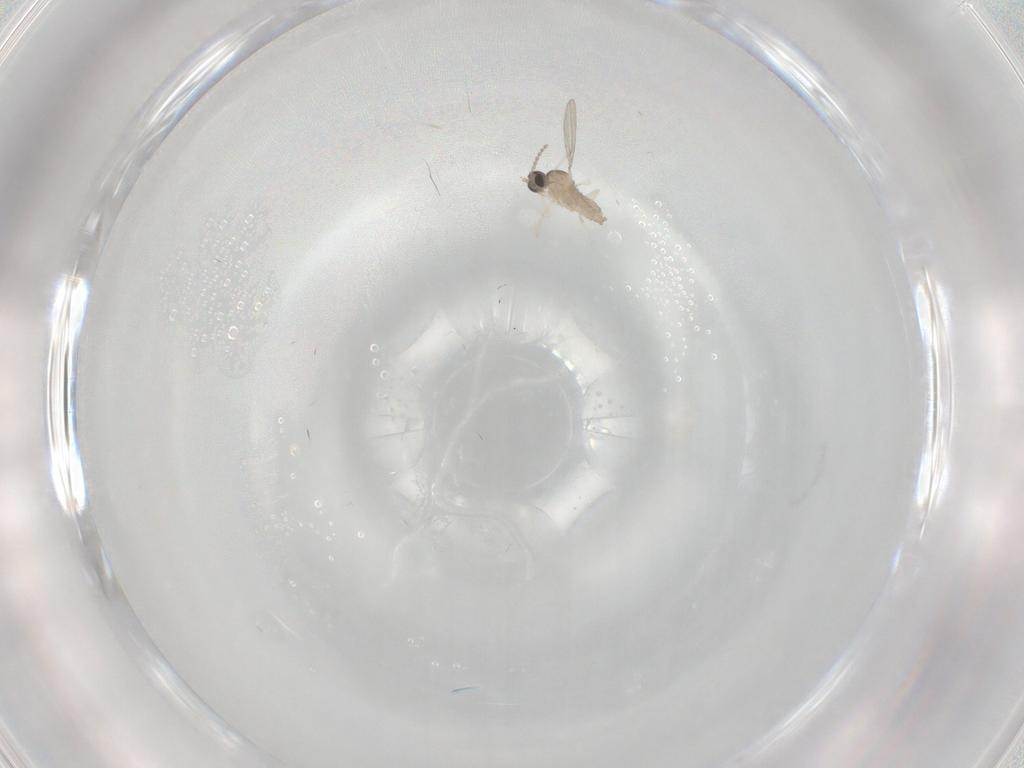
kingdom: Animalia
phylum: Arthropoda
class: Insecta
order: Diptera
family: Cecidomyiidae
